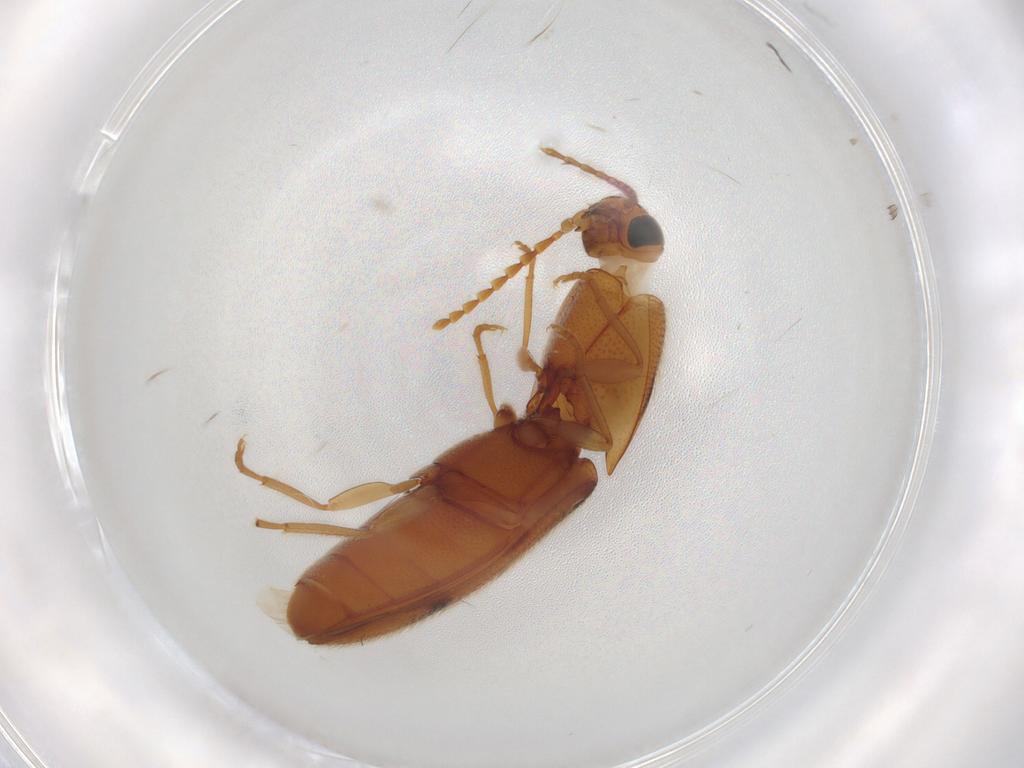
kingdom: Animalia
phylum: Arthropoda
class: Insecta
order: Coleoptera
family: Elateridae
